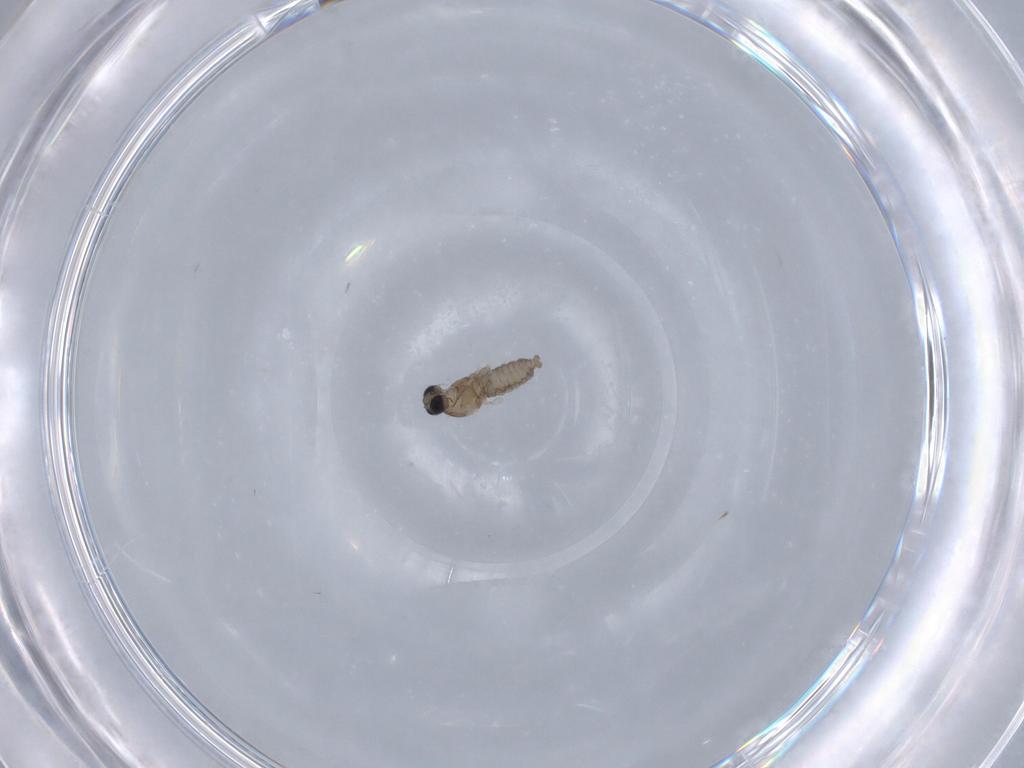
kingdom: Animalia
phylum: Arthropoda
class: Insecta
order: Diptera
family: Cecidomyiidae
